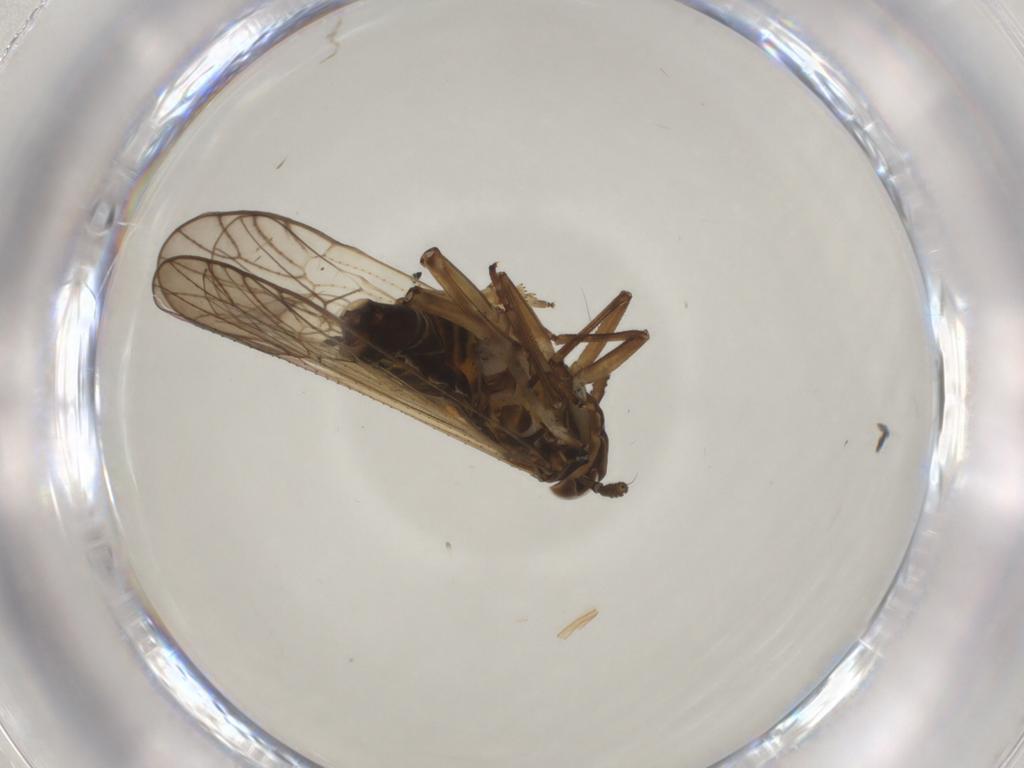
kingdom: Animalia
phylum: Arthropoda
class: Insecta
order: Hemiptera
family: Delphacidae
